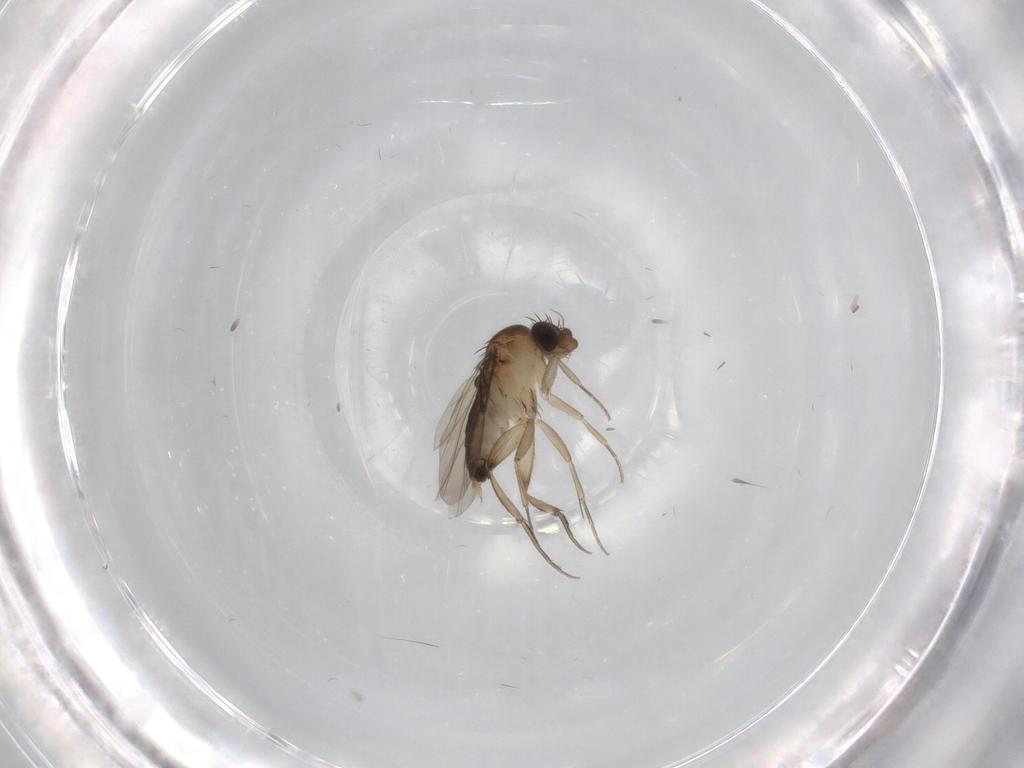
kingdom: Animalia
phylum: Arthropoda
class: Insecta
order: Diptera
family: Phoridae
